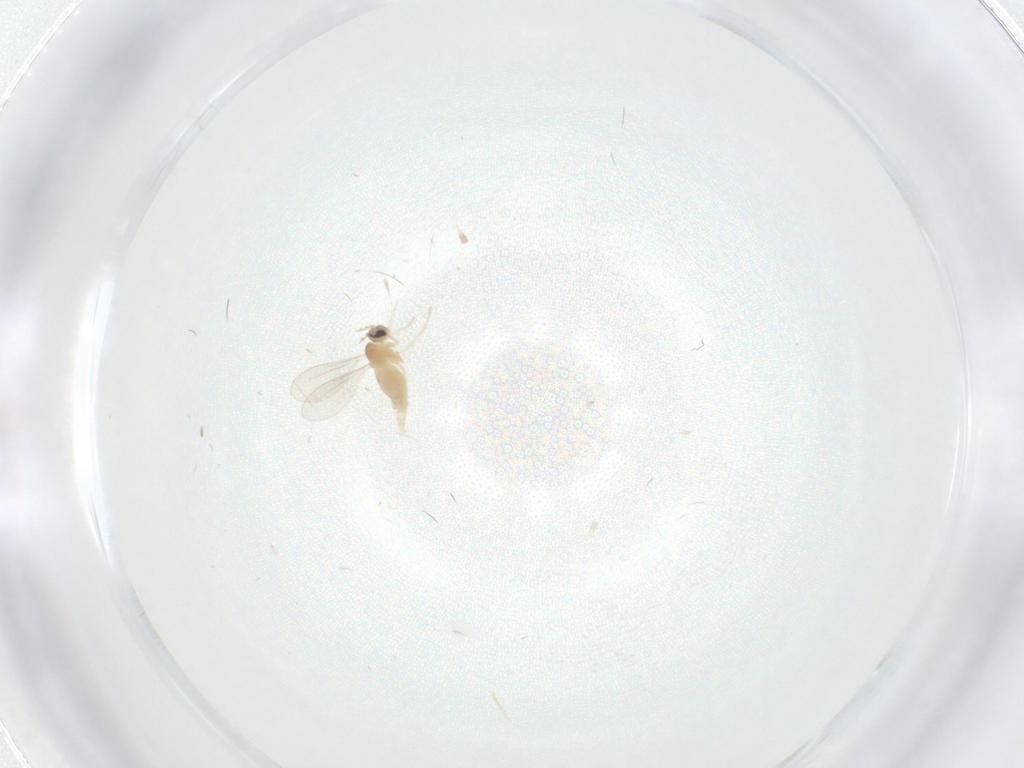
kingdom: Animalia
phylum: Arthropoda
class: Insecta
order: Diptera
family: Cecidomyiidae
